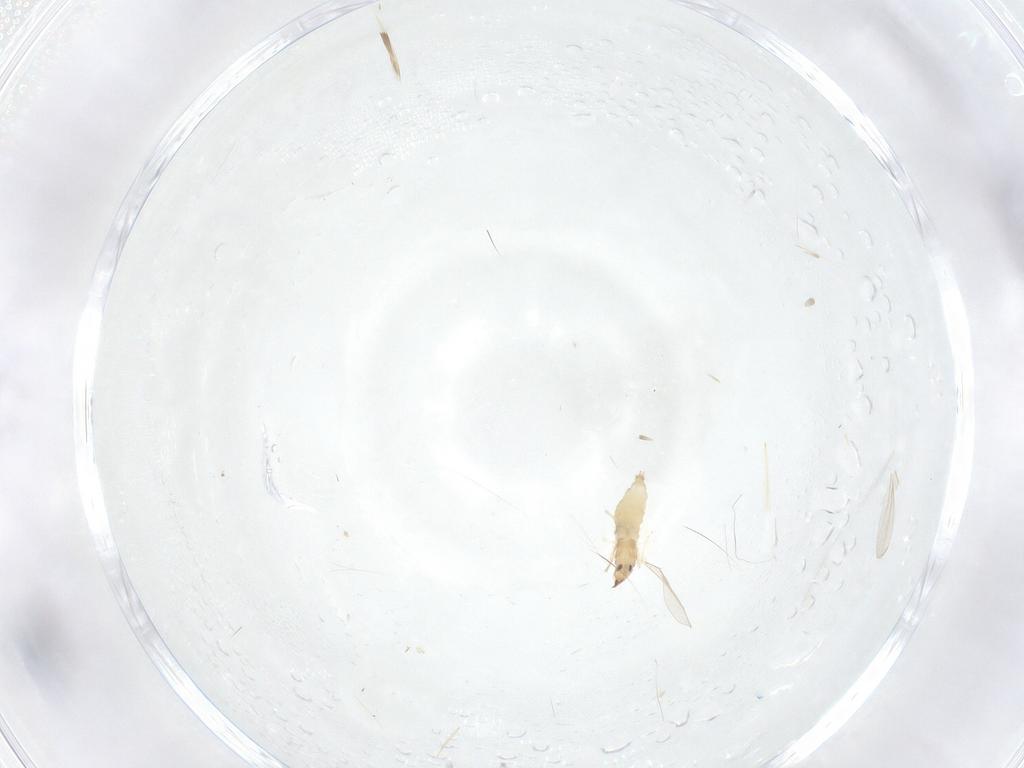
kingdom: Animalia
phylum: Arthropoda
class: Insecta
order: Diptera
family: Cecidomyiidae
